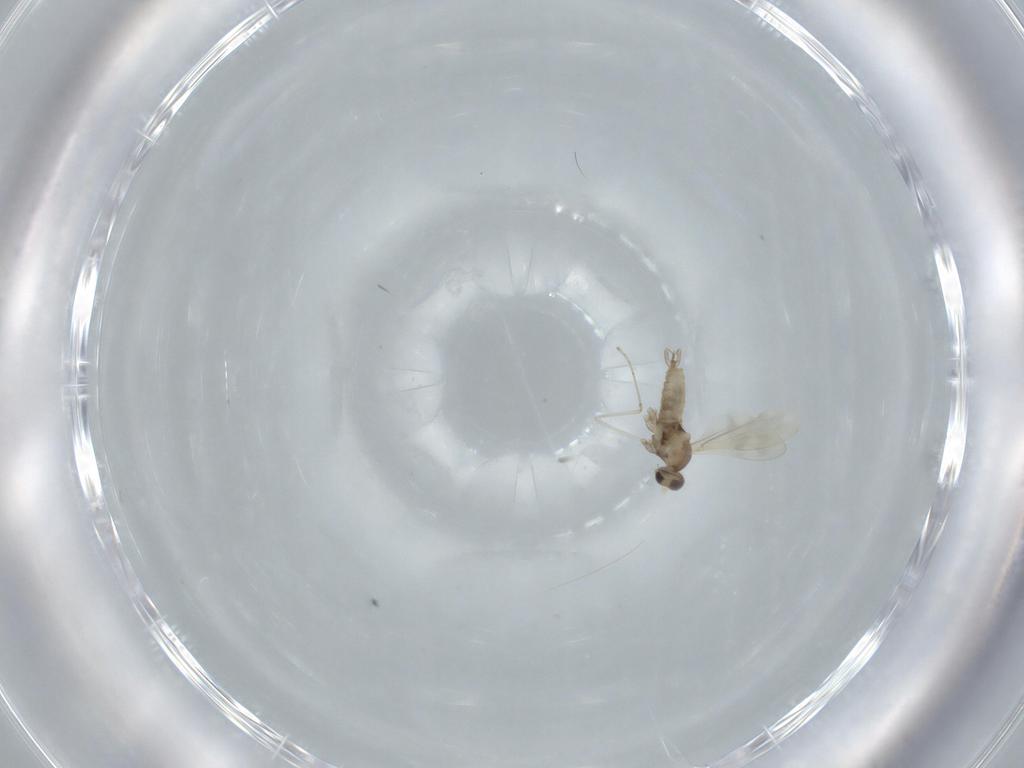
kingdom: Animalia
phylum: Arthropoda
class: Insecta
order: Diptera
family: Cecidomyiidae
